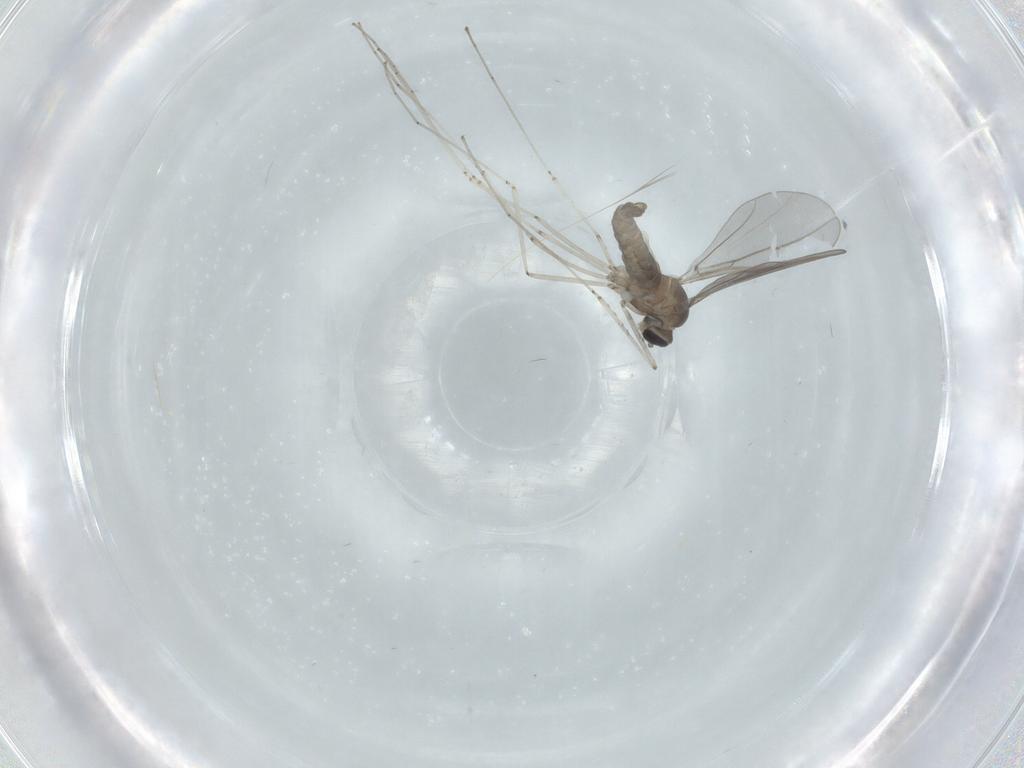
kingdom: Animalia
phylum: Arthropoda
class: Insecta
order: Diptera
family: Cecidomyiidae
